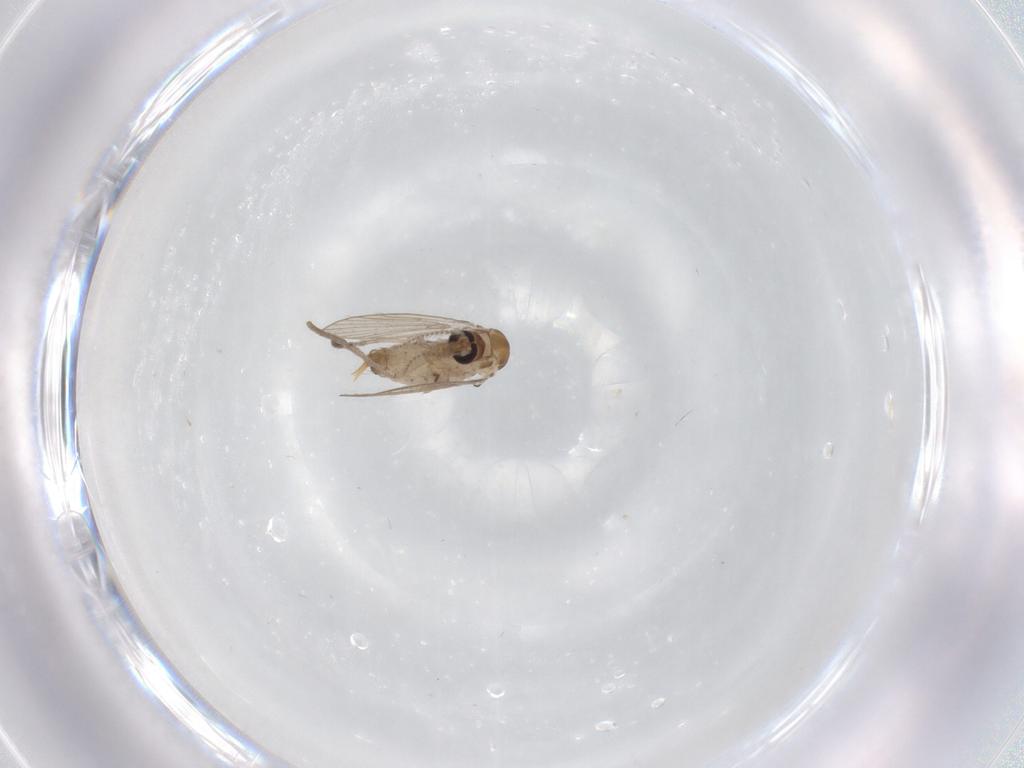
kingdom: Animalia
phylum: Arthropoda
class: Insecta
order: Diptera
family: Psychodidae
